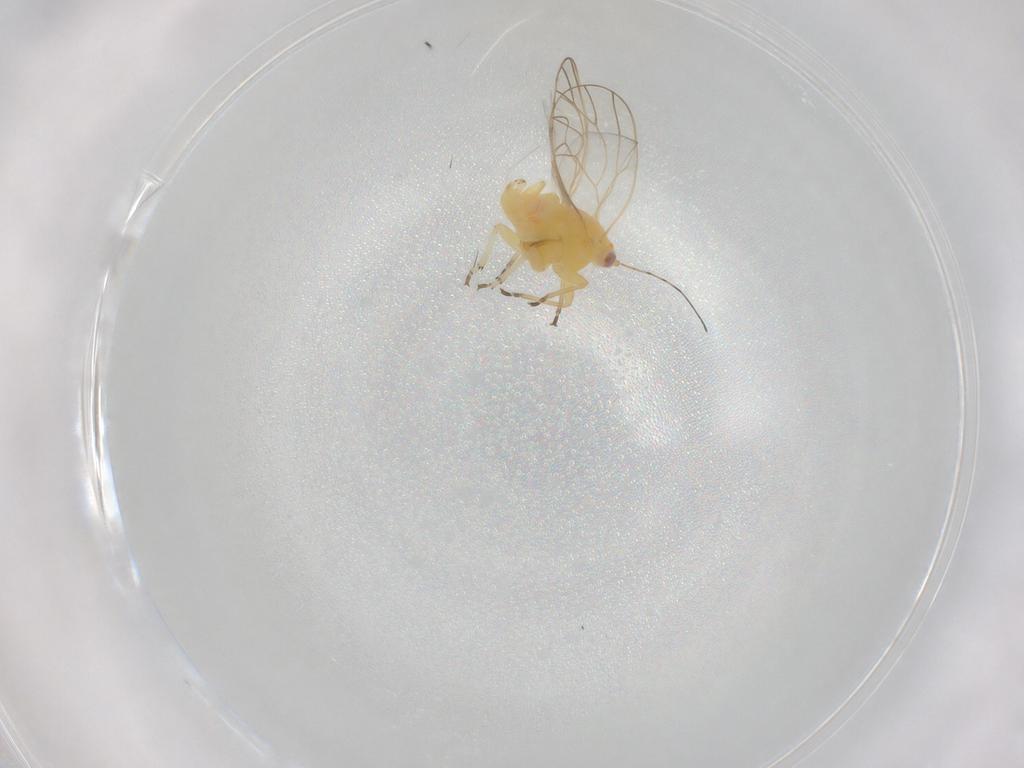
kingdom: Animalia
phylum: Arthropoda
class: Insecta
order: Hemiptera
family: Psyllidae
